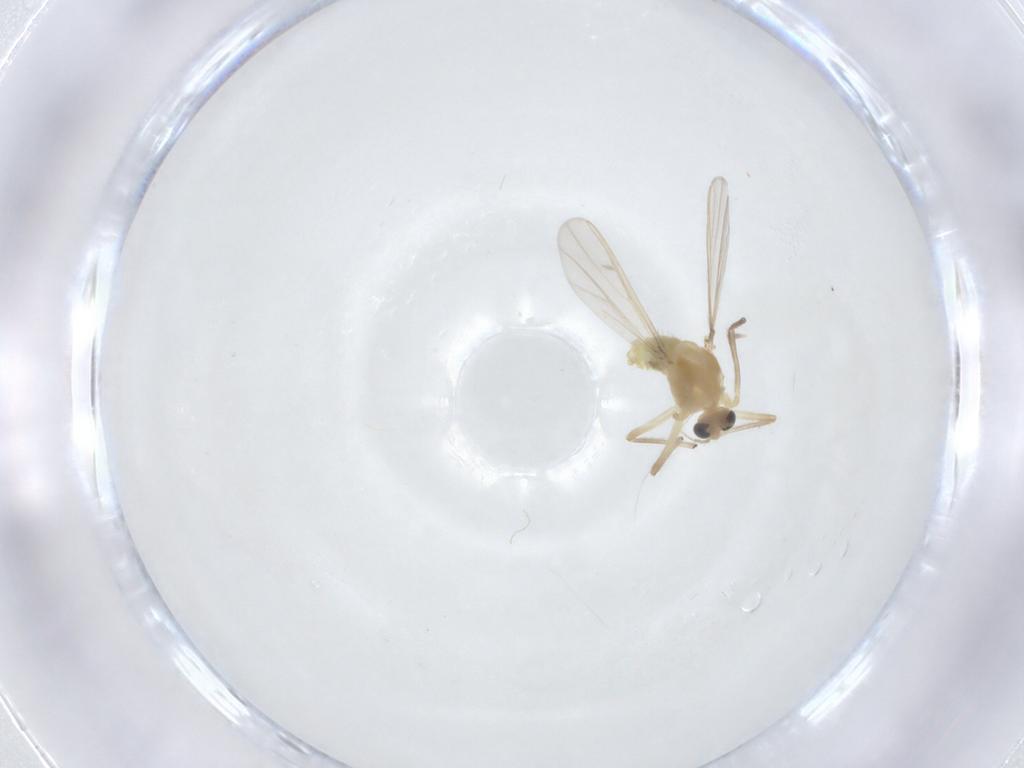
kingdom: Animalia
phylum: Arthropoda
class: Insecta
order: Diptera
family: Chironomidae
